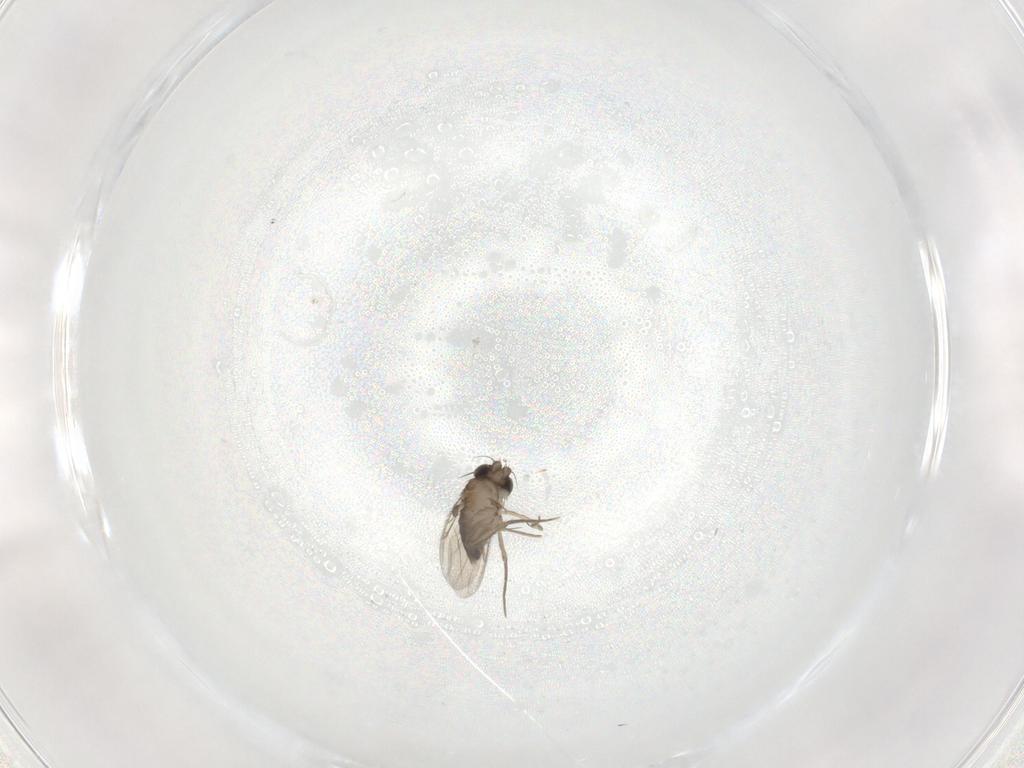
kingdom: Animalia
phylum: Arthropoda
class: Insecta
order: Diptera
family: Phoridae
